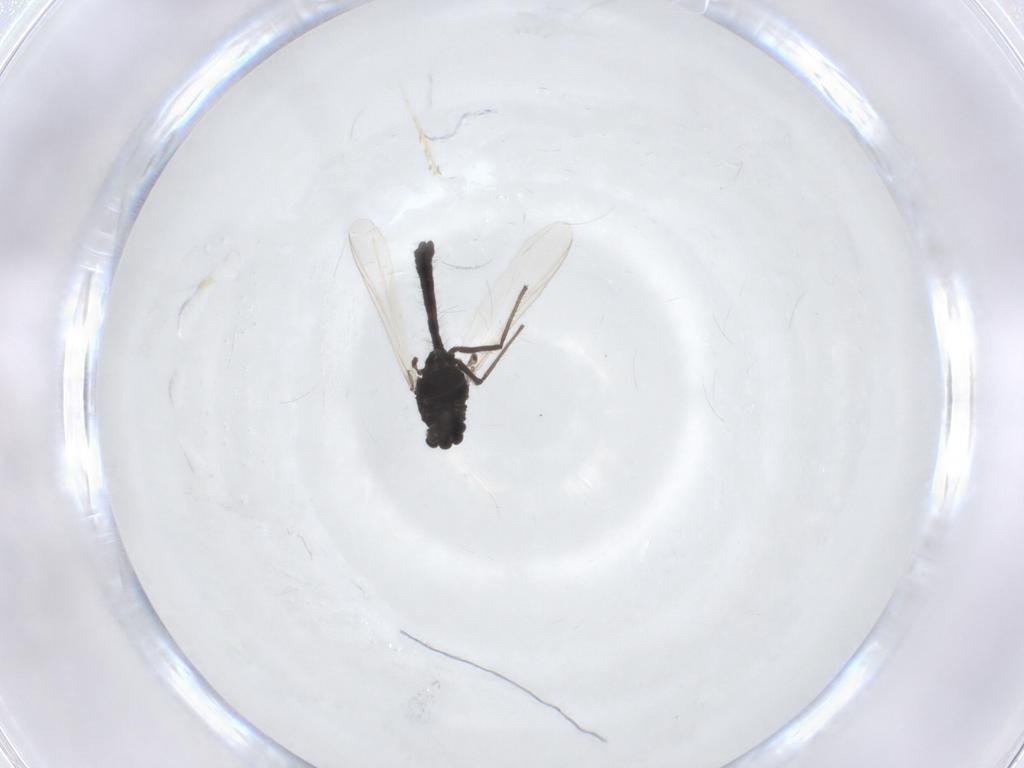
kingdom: Animalia
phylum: Arthropoda
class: Insecta
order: Diptera
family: Chironomidae
